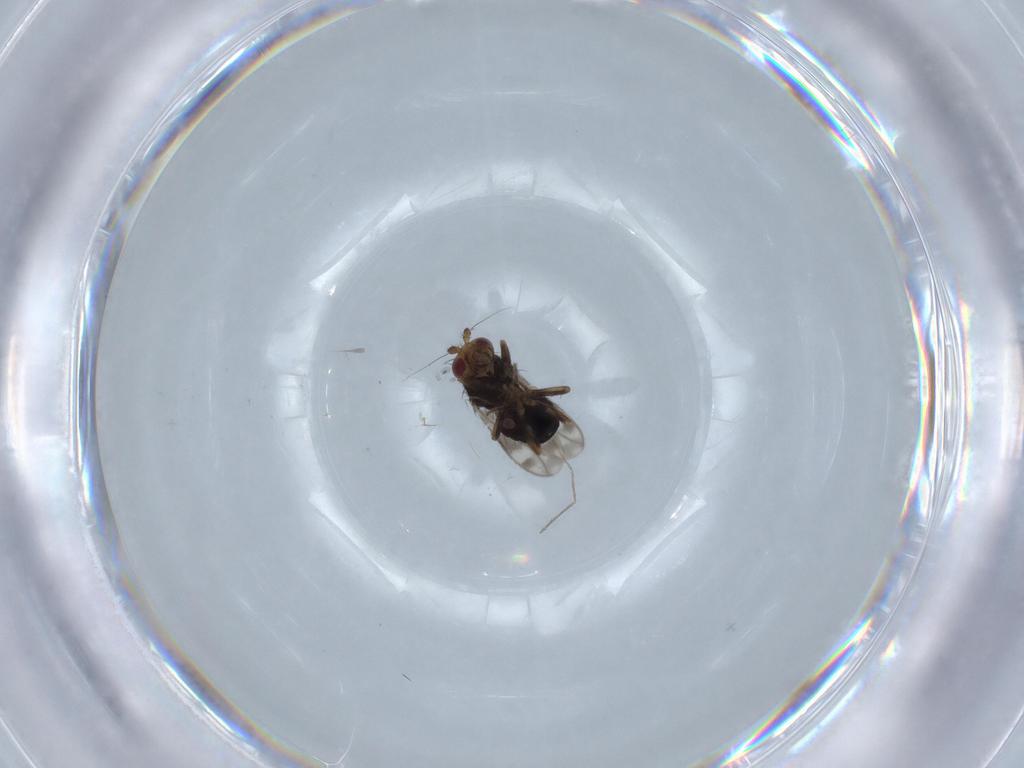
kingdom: Animalia
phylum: Arthropoda
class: Insecta
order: Diptera
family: Sphaeroceridae
